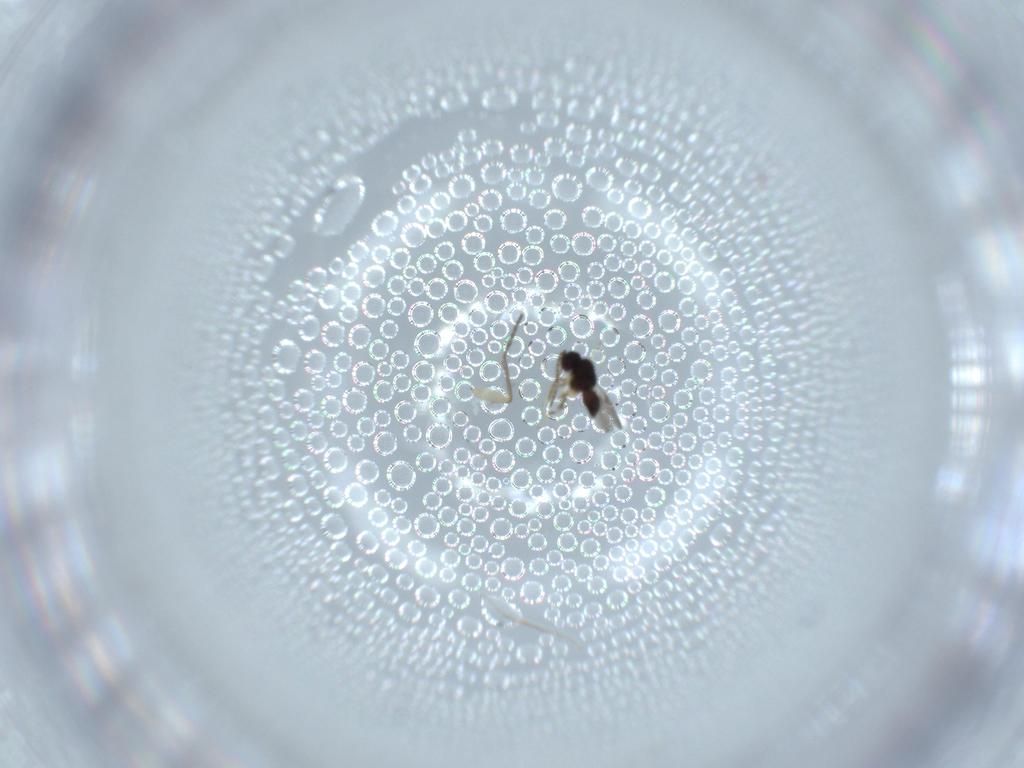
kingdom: Animalia
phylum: Arthropoda
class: Insecta
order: Hymenoptera
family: Ceraphronidae
